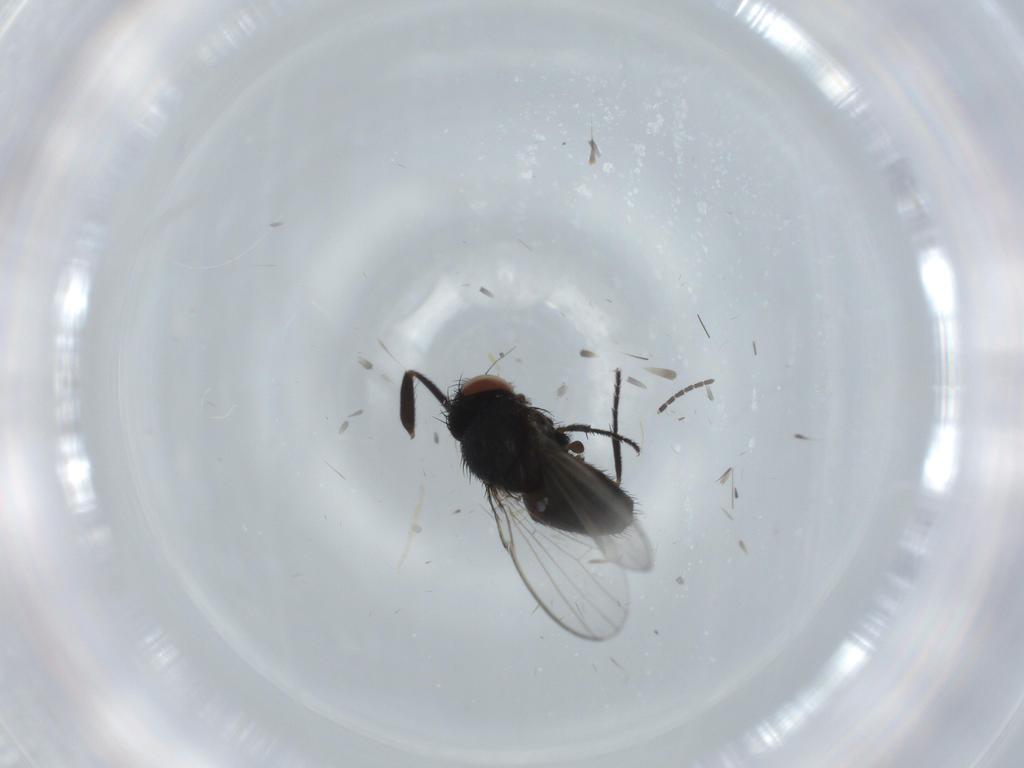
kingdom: Animalia
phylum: Arthropoda
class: Insecta
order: Diptera
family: Milichiidae
